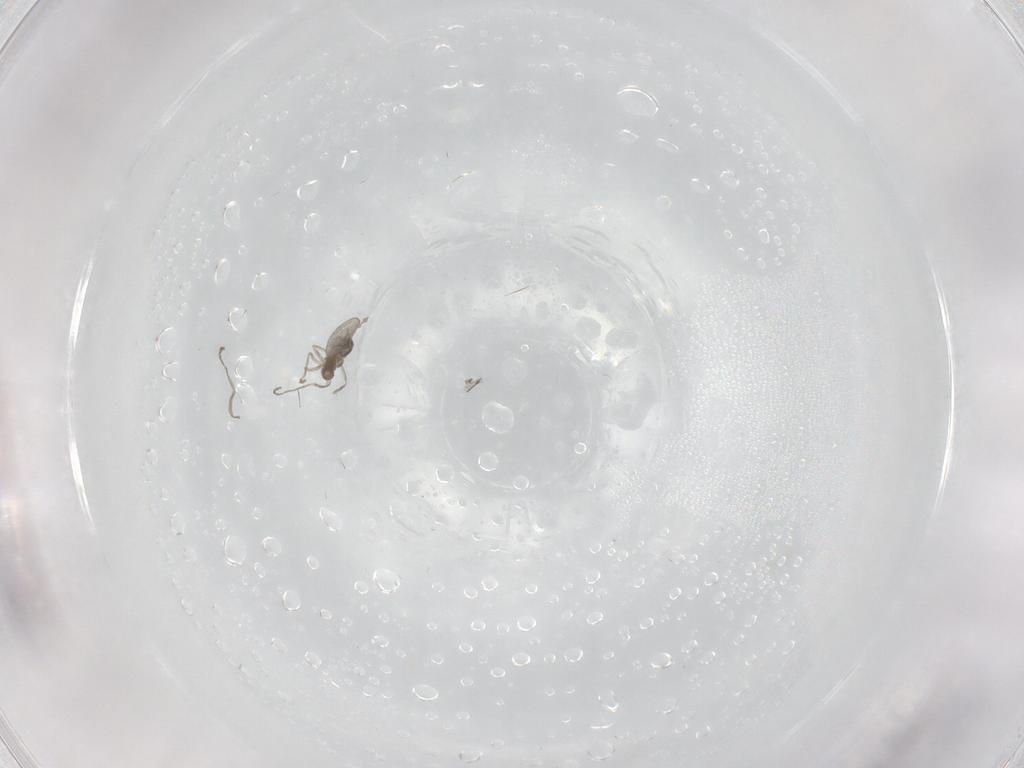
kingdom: Animalia
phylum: Arthropoda
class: Insecta
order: Diptera
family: Cecidomyiidae
